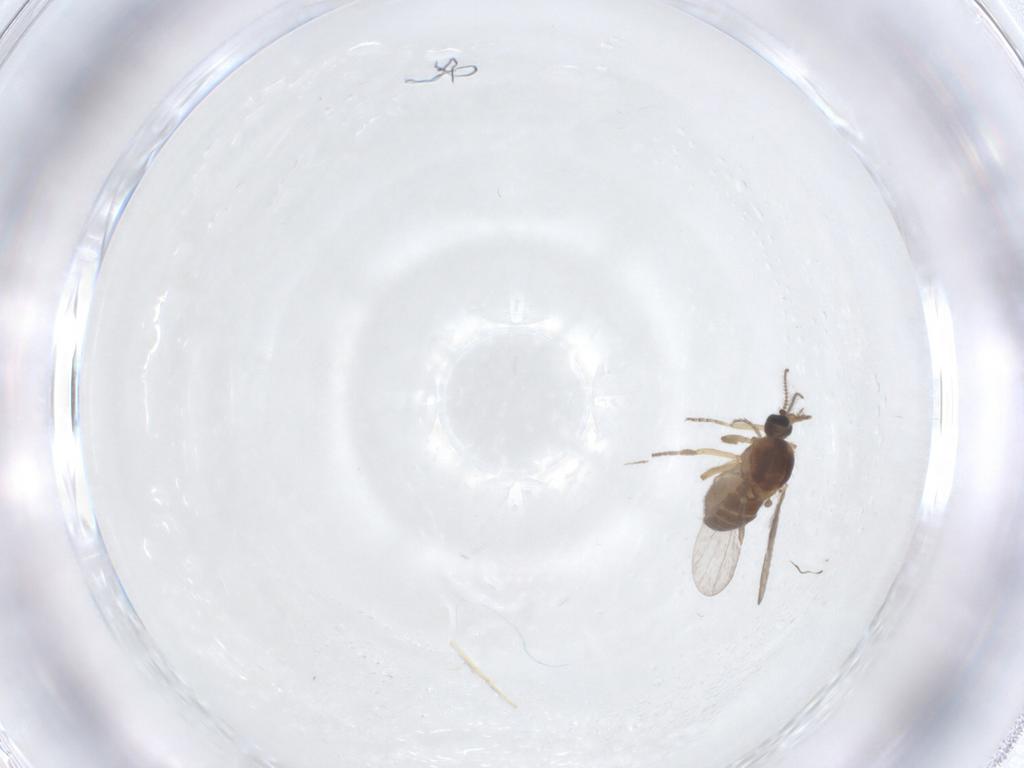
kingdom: Animalia
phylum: Arthropoda
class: Insecta
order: Diptera
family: Ceratopogonidae
